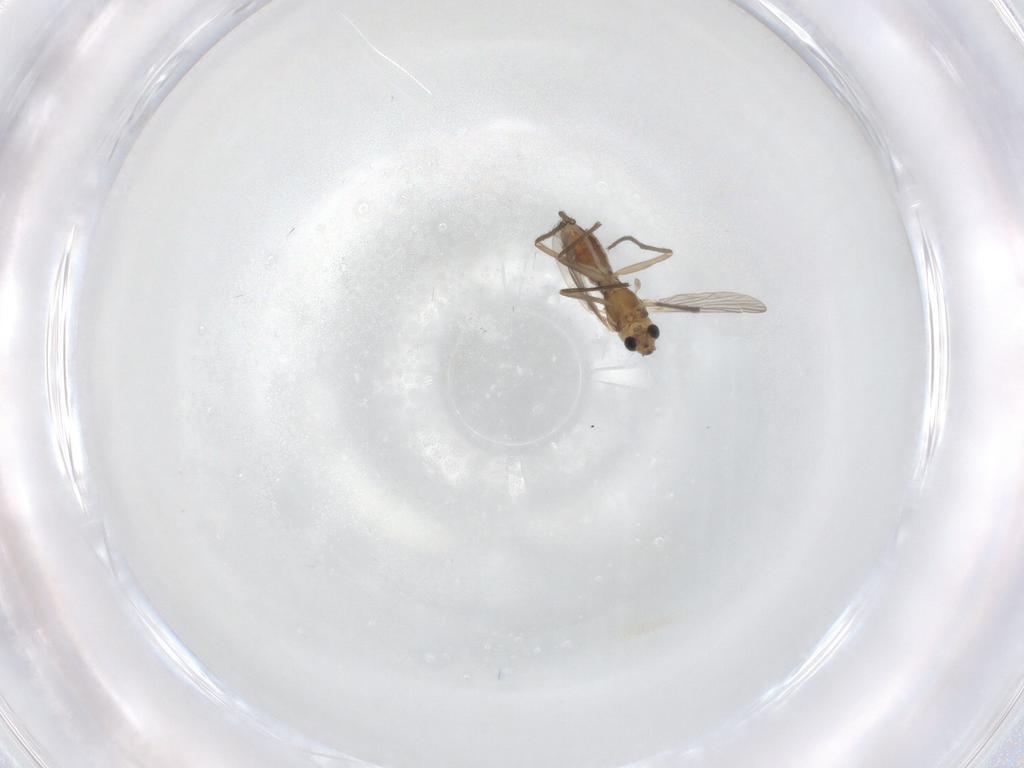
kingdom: Animalia
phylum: Arthropoda
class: Insecta
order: Diptera
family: Chironomidae
